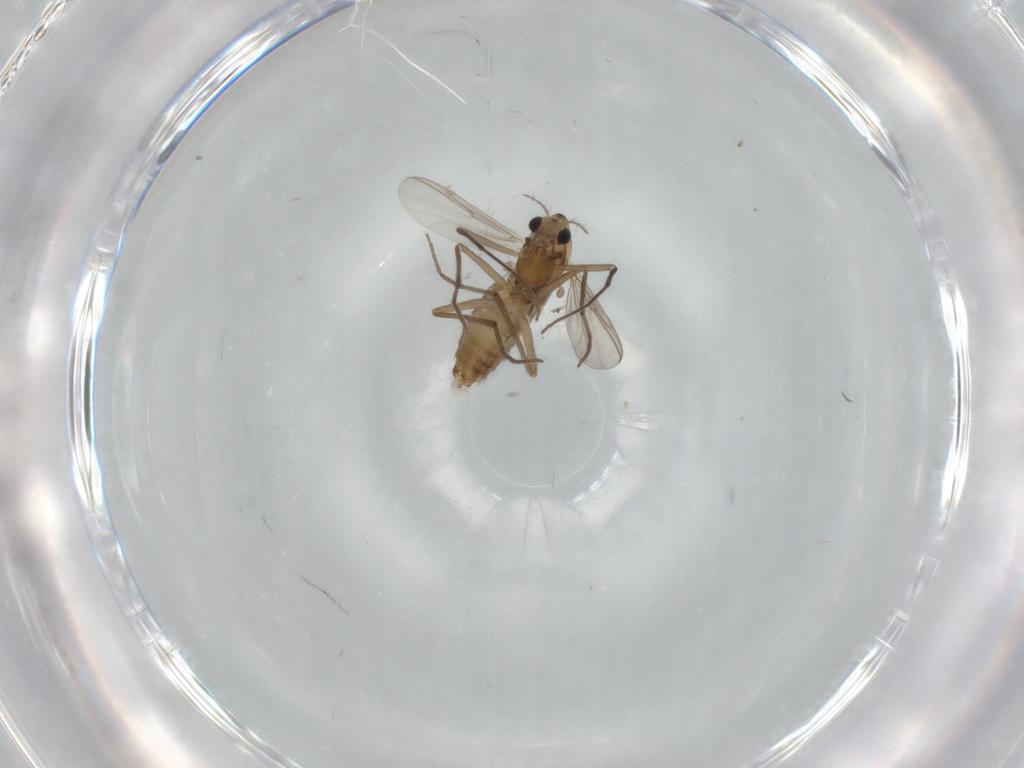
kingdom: Animalia
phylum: Arthropoda
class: Insecta
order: Diptera
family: Chironomidae
